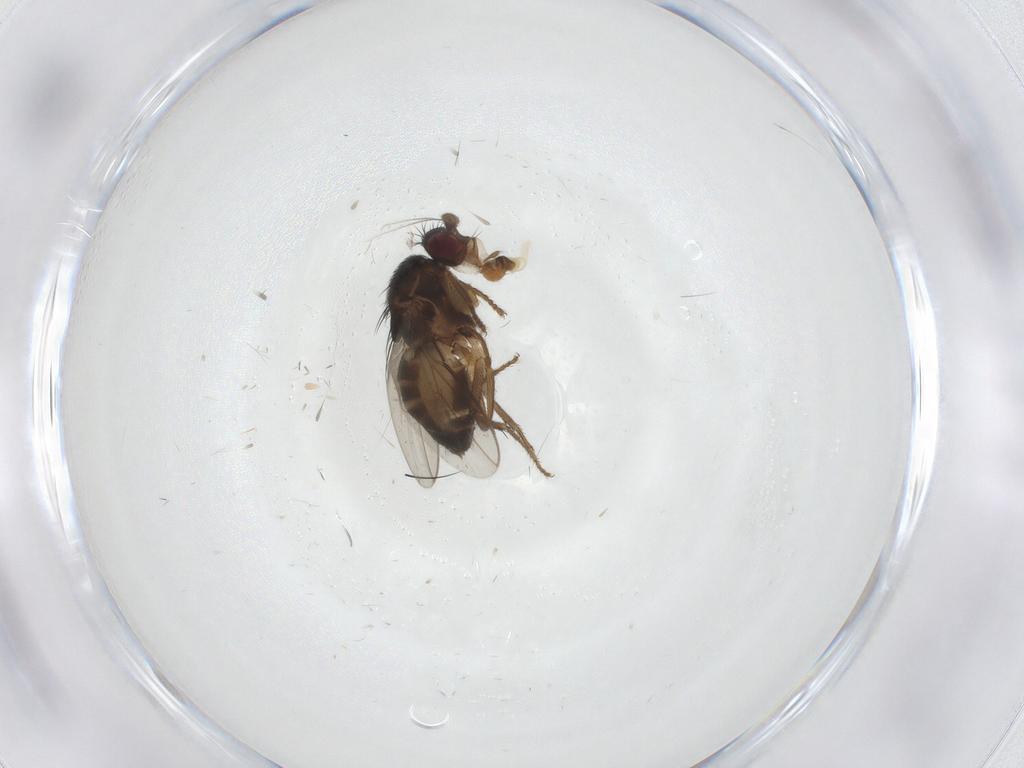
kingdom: Animalia
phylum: Arthropoda
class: Insecta
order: Diptera
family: Sphaeroceridae
